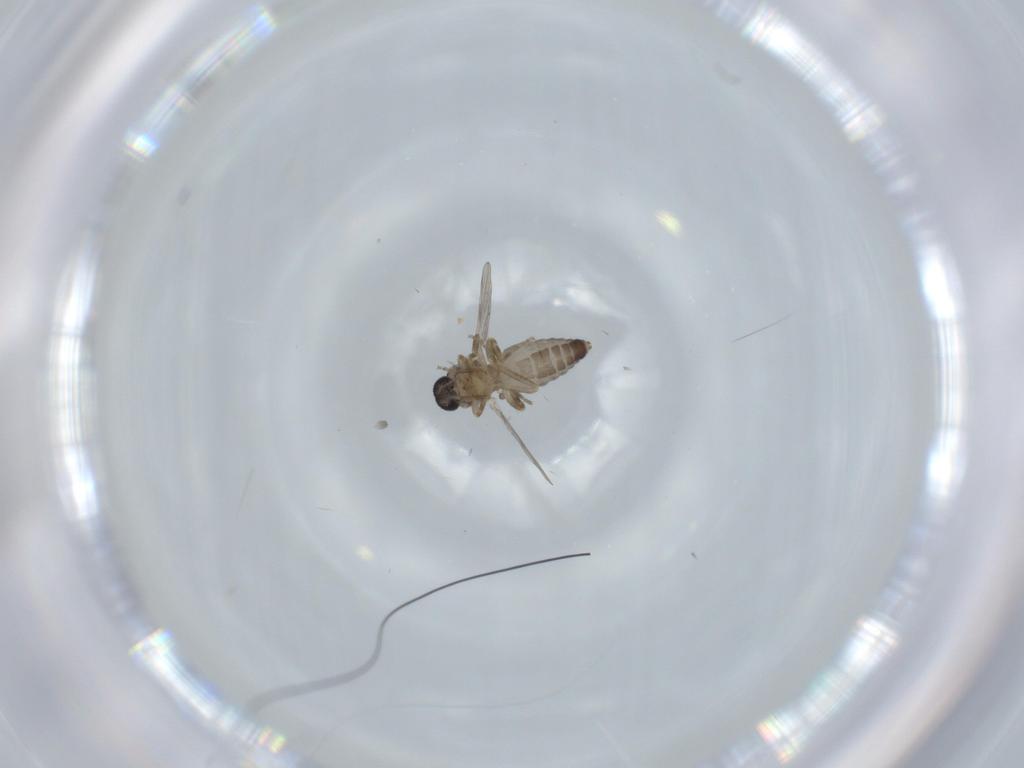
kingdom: Animalia
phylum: Arthropoda
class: Insecta
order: Diptera
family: Ceratopogonidae
